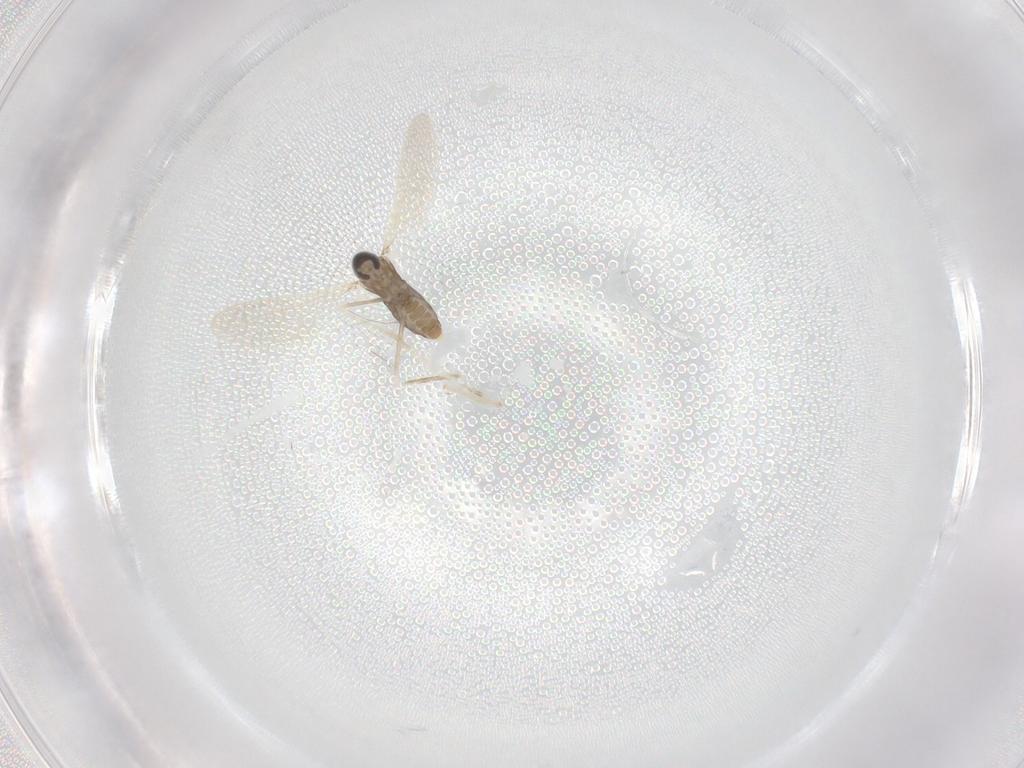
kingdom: Animalia
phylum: Arthropoda
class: Insecta
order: Diptera
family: Cecidomyiidae
